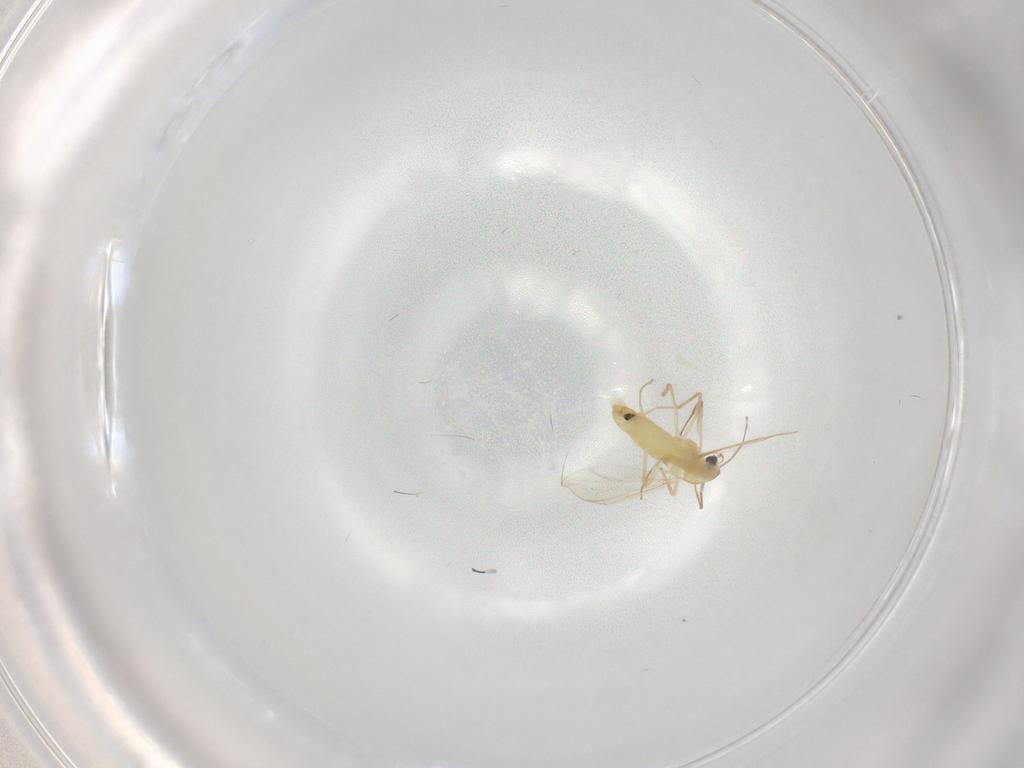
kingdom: Animalia
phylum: Arthropoda
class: Insecta
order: Diptera
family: Chironomidae
